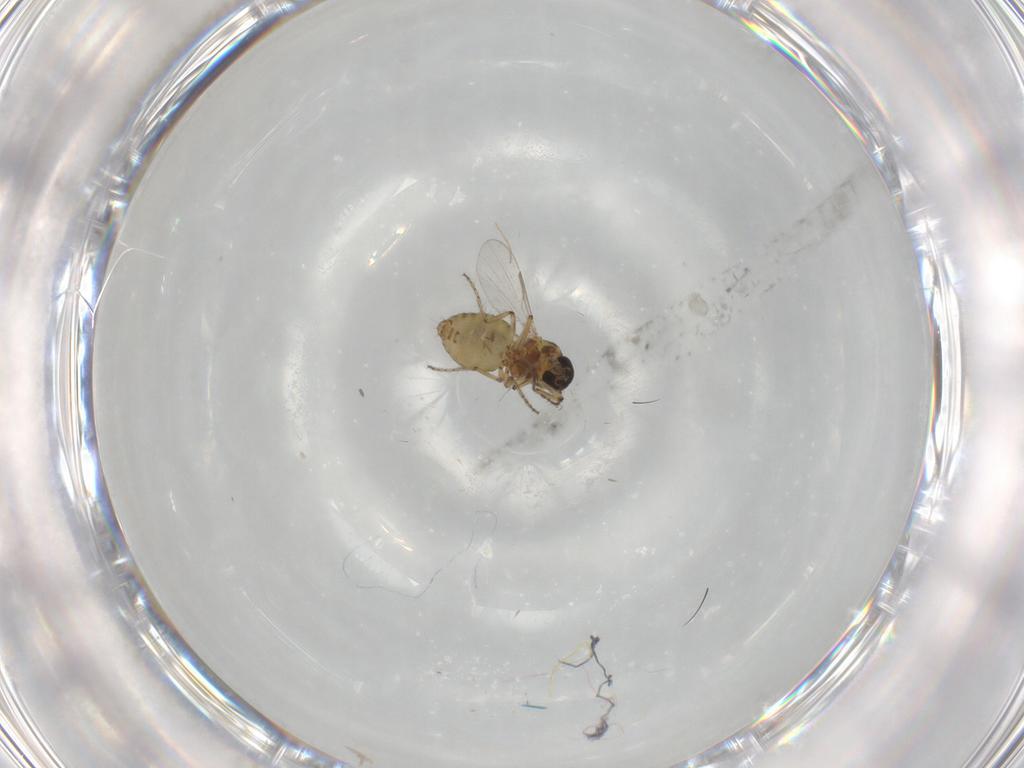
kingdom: Animalia
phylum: Arthropoda
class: Insecta
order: Diptera
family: Ceratopogonidae
